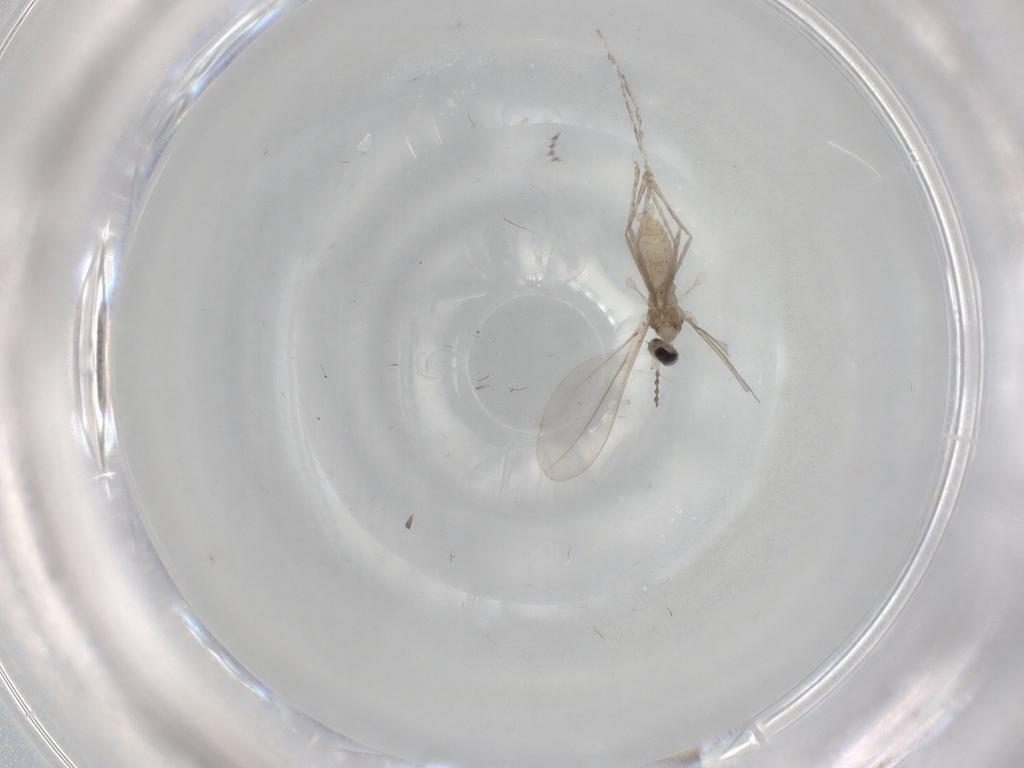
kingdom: Animalia
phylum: Arthropoda
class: Insecta
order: Diptera
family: Cecidomyiidae
